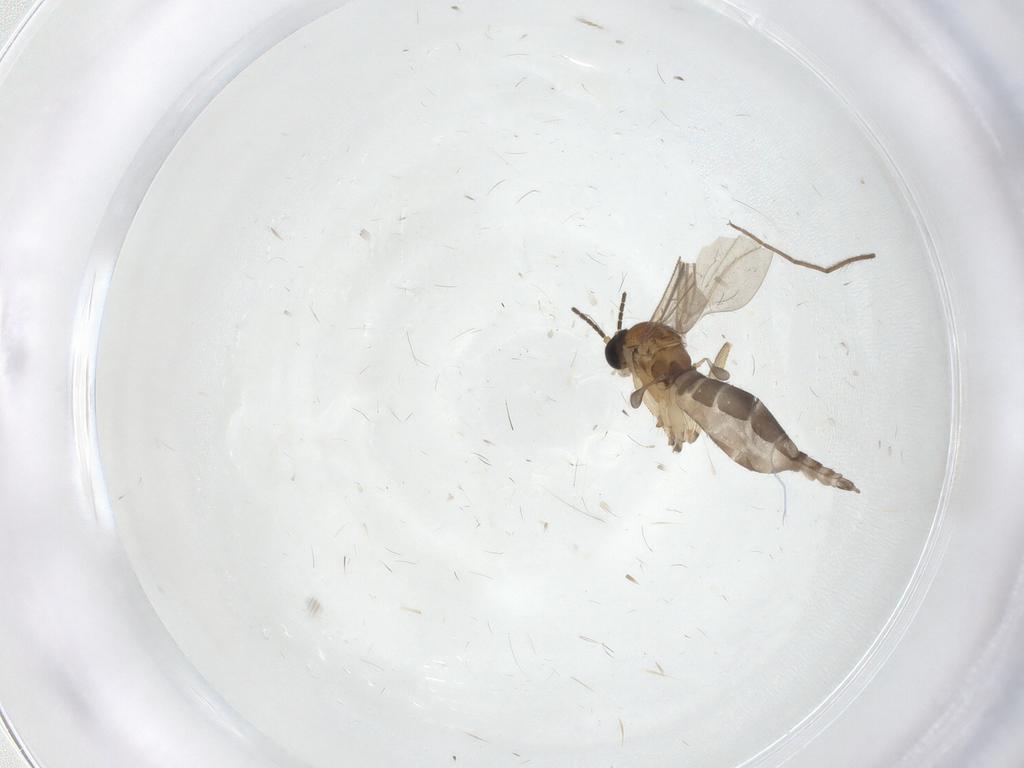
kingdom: Animalia
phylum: Arthropoda
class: Insecta
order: Diptera
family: Sciaridae
